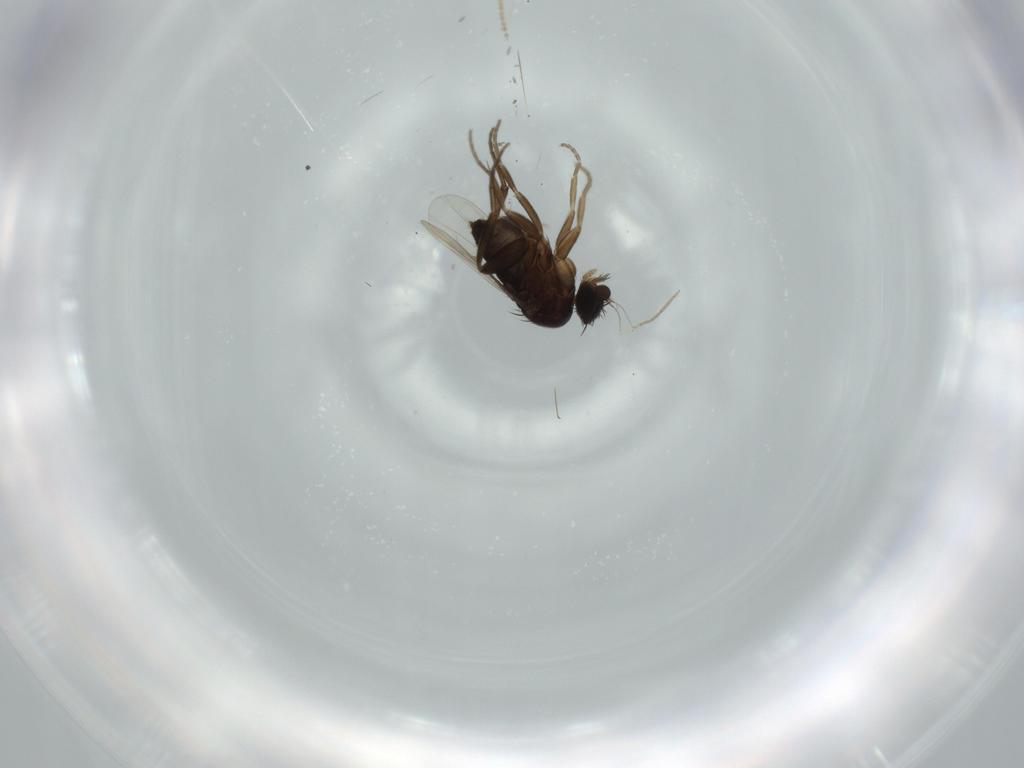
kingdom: Animalia
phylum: Arthropoda
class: Insecta
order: Diptera
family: Phoridae
